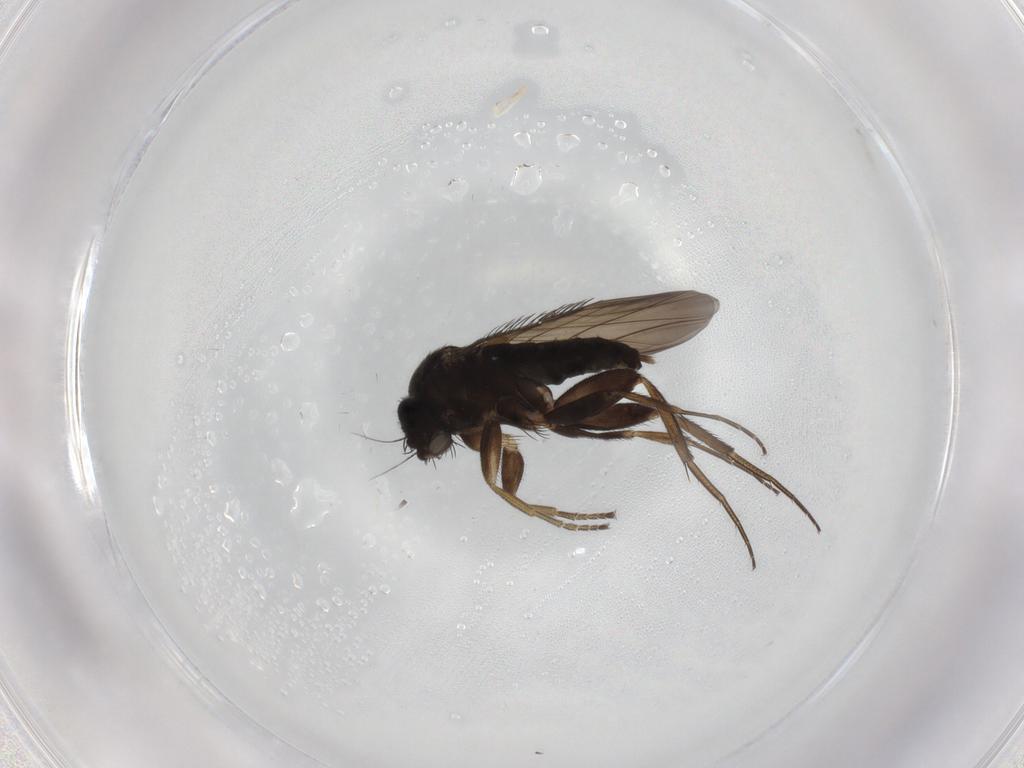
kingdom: Animalia
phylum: Arthropoda
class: Insecta
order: Diptera
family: Phoridae
